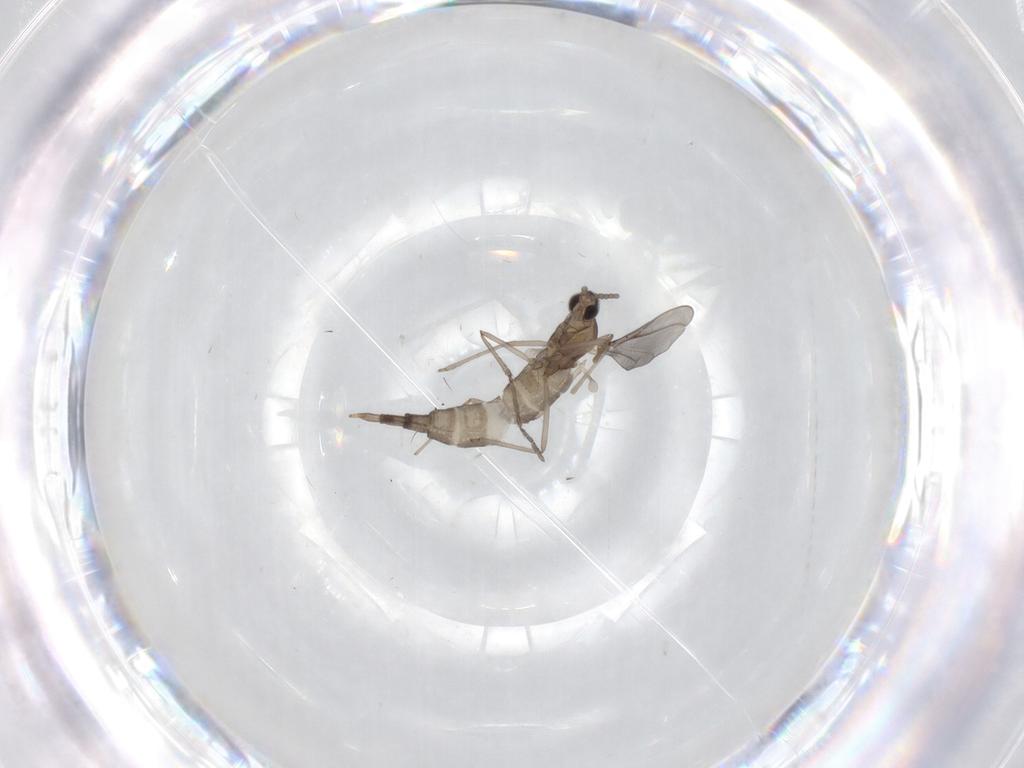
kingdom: Animalia
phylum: Arthropoda
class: Insecta
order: Diptera
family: Cecidomyiidae
